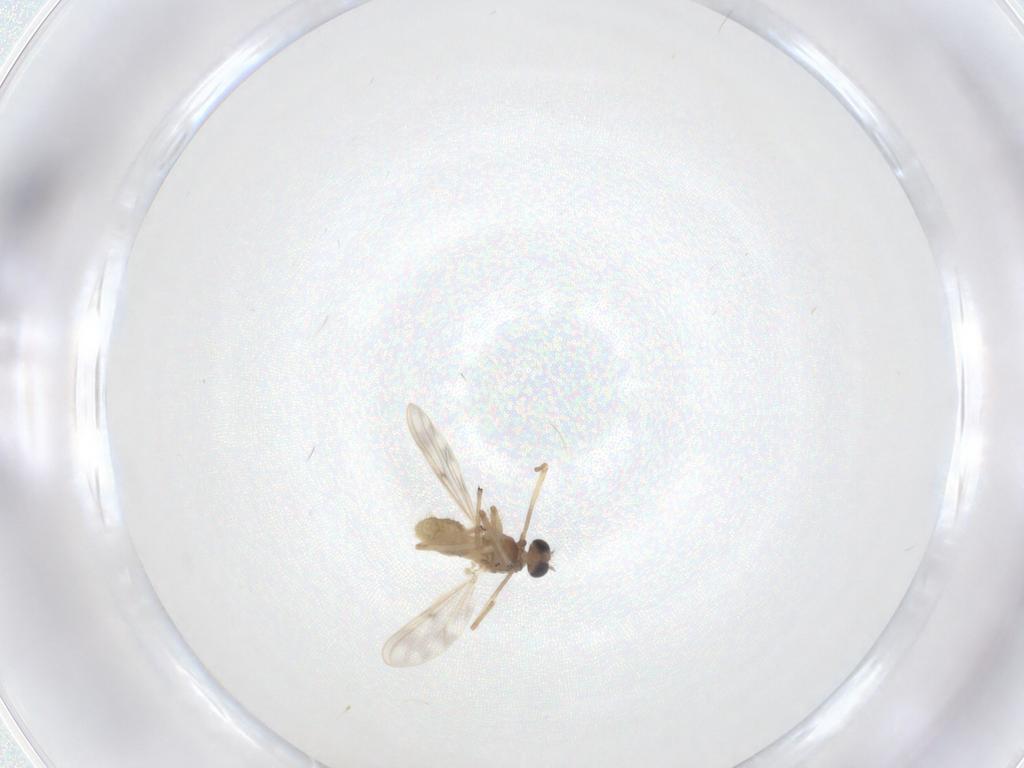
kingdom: Animalia
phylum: Arthropoda
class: Insecta
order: Diptera
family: Chironomidae
